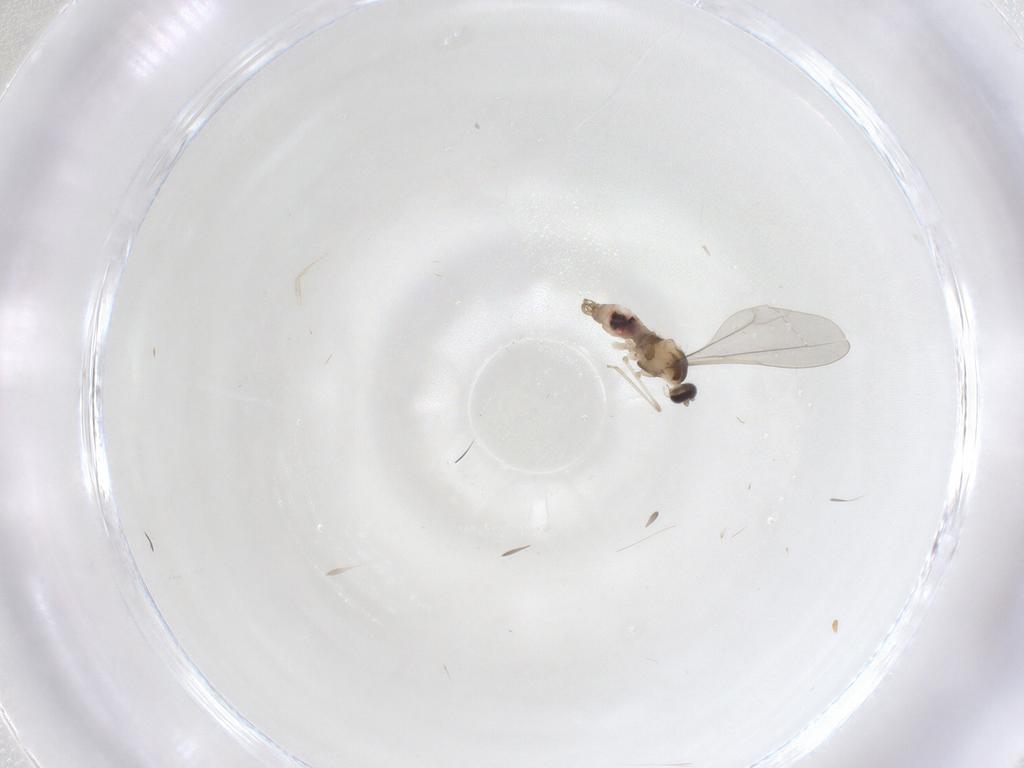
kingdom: Animalia
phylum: Arthropoda
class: Insecta
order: Diptera
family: Cecidomyiidae
